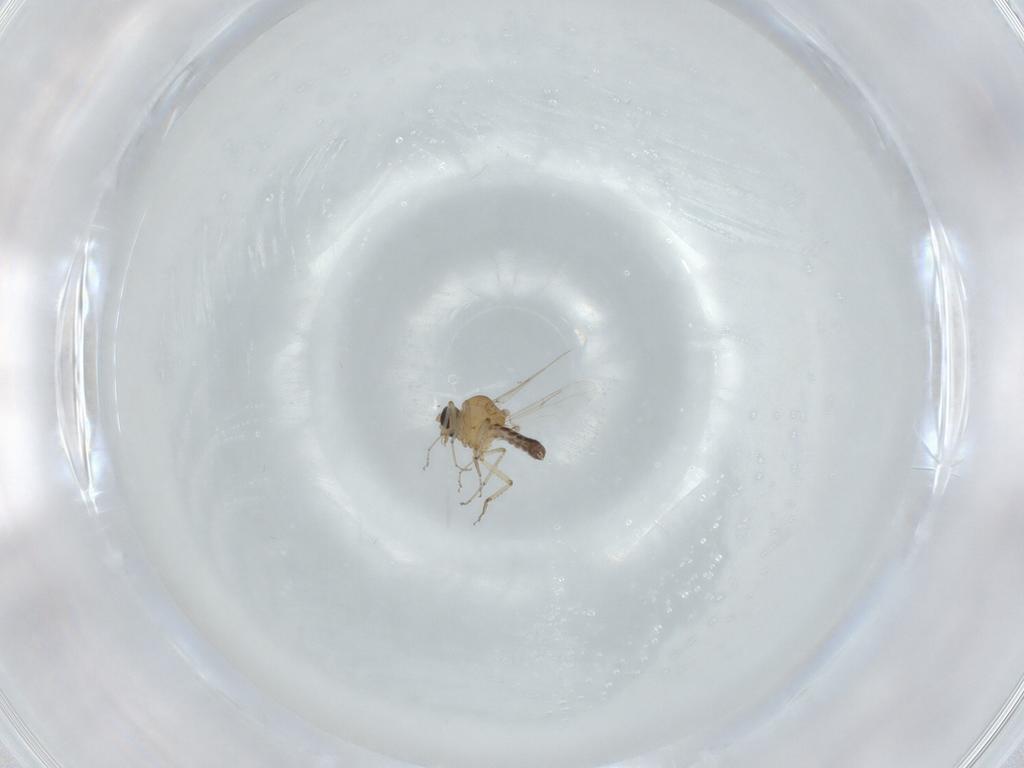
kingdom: Animalia
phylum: Arthropoda
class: Insecta
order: Diptera
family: Ceratopogonidae
